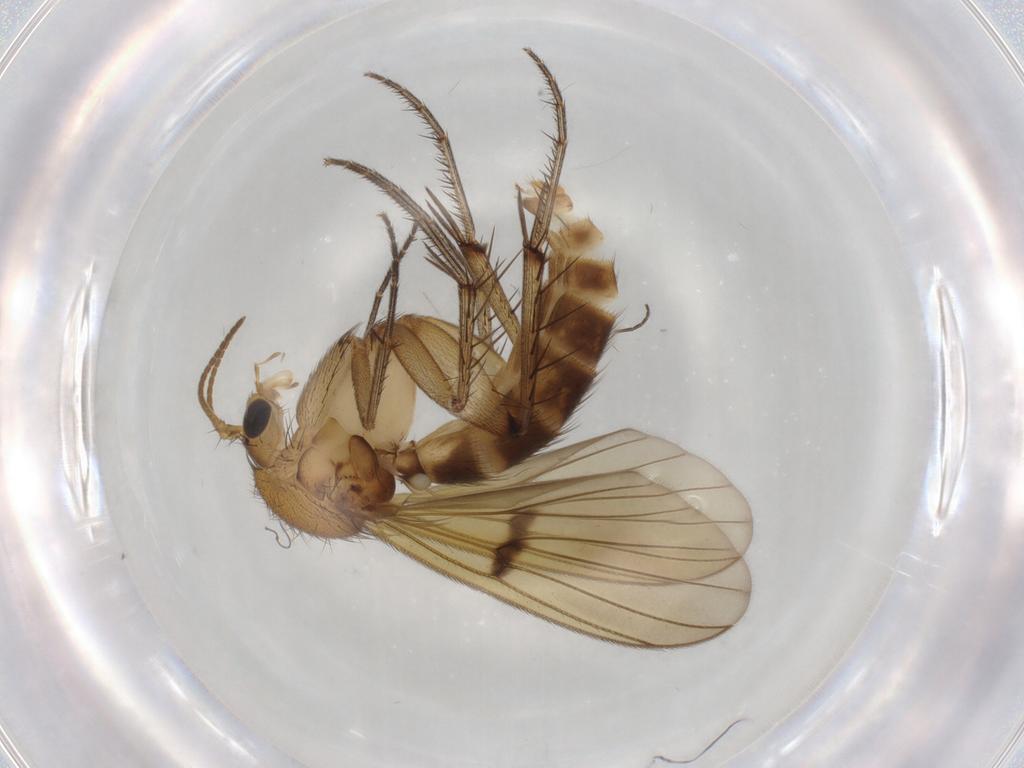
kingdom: Animalia
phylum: Arthropoda
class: Insecta
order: Diptera
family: Mycetophilidae
